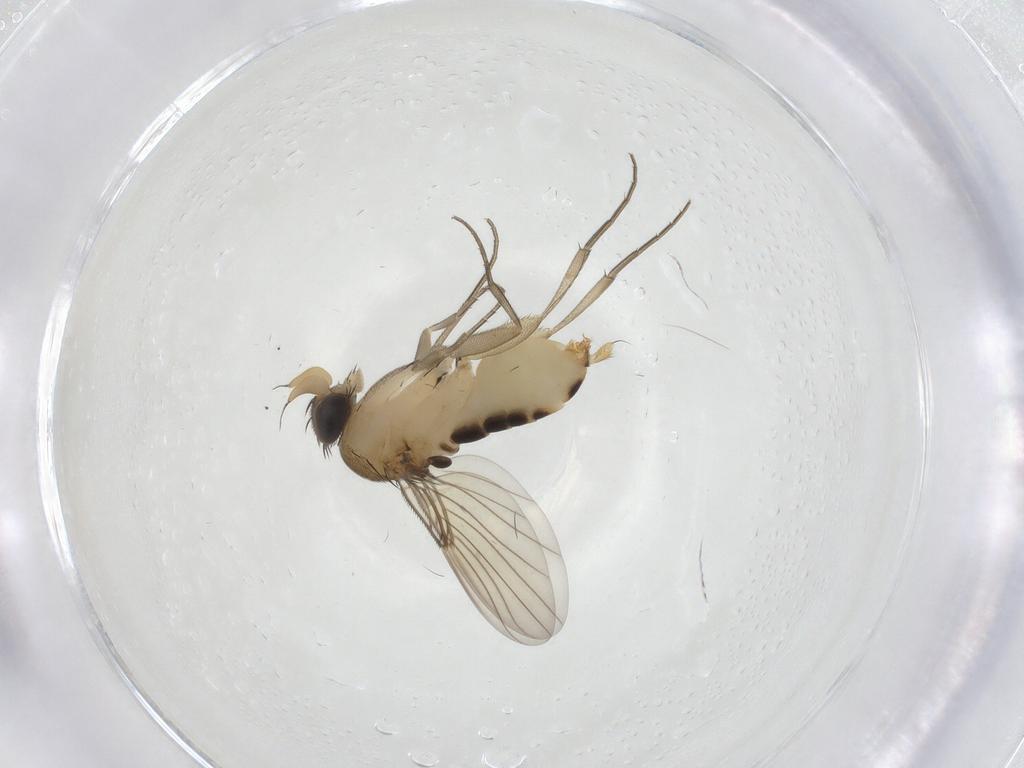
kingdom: Animalia
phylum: Arthropoda
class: Insecta
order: Diptera
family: Phoridae
